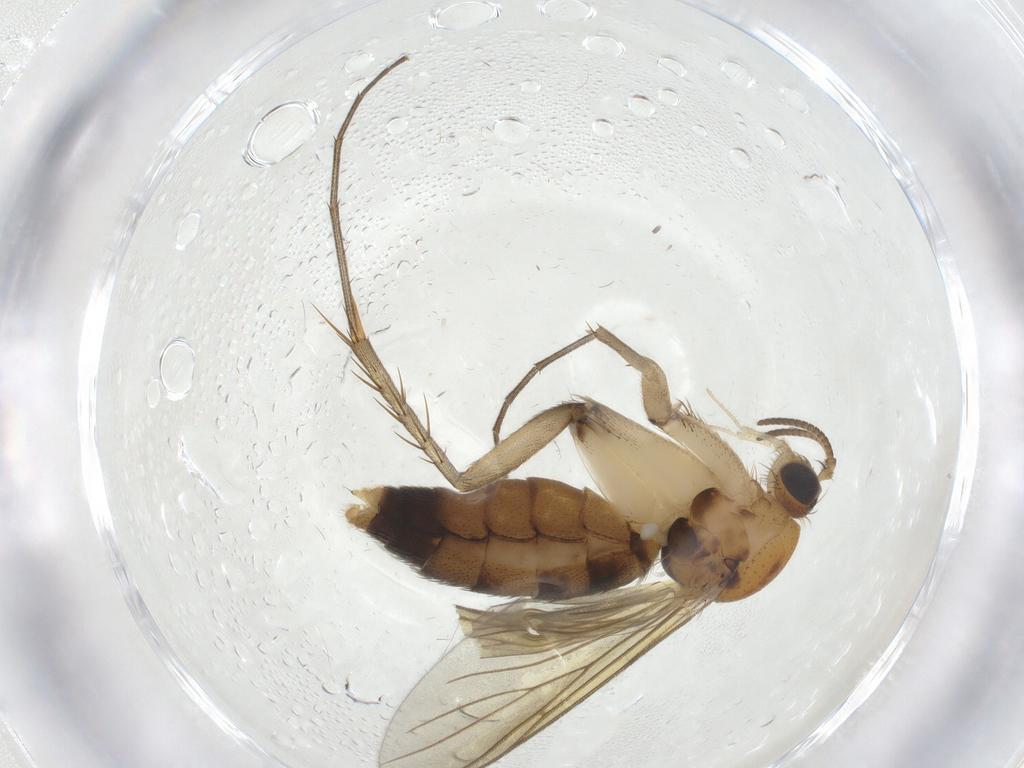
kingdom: Animalia
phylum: Arthropoda
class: Insecta
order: Diptera
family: Mycetophilidae
